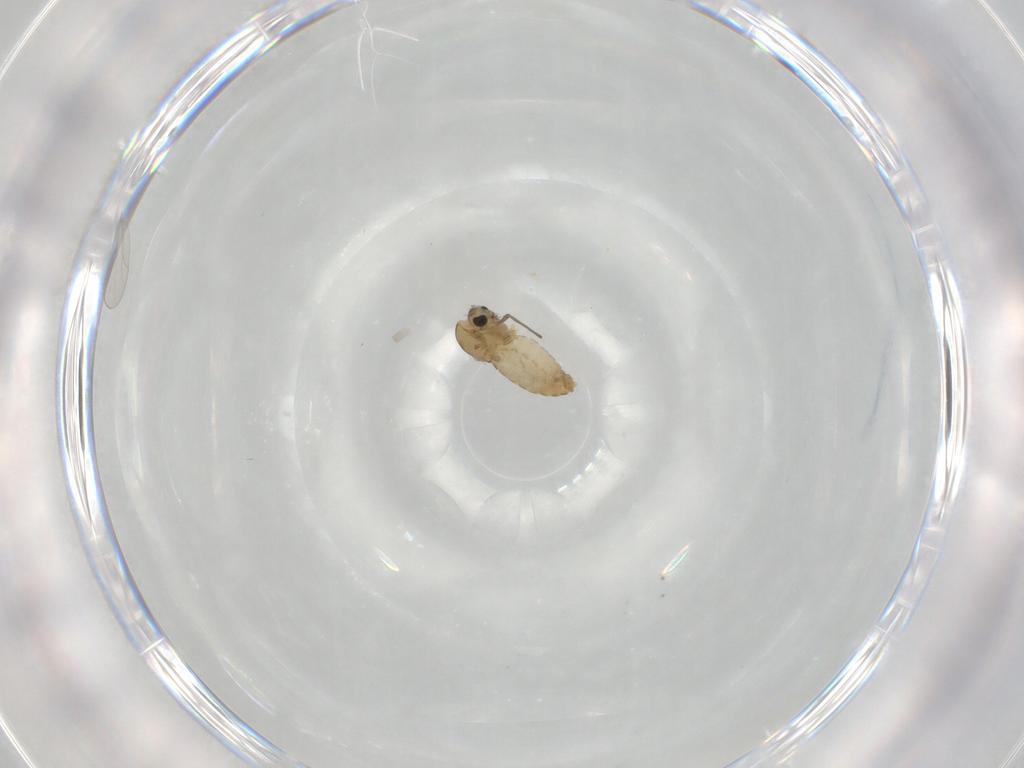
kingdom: Animalia
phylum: Arthropoda
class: Insecta
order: Diptera
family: Chironomidae
